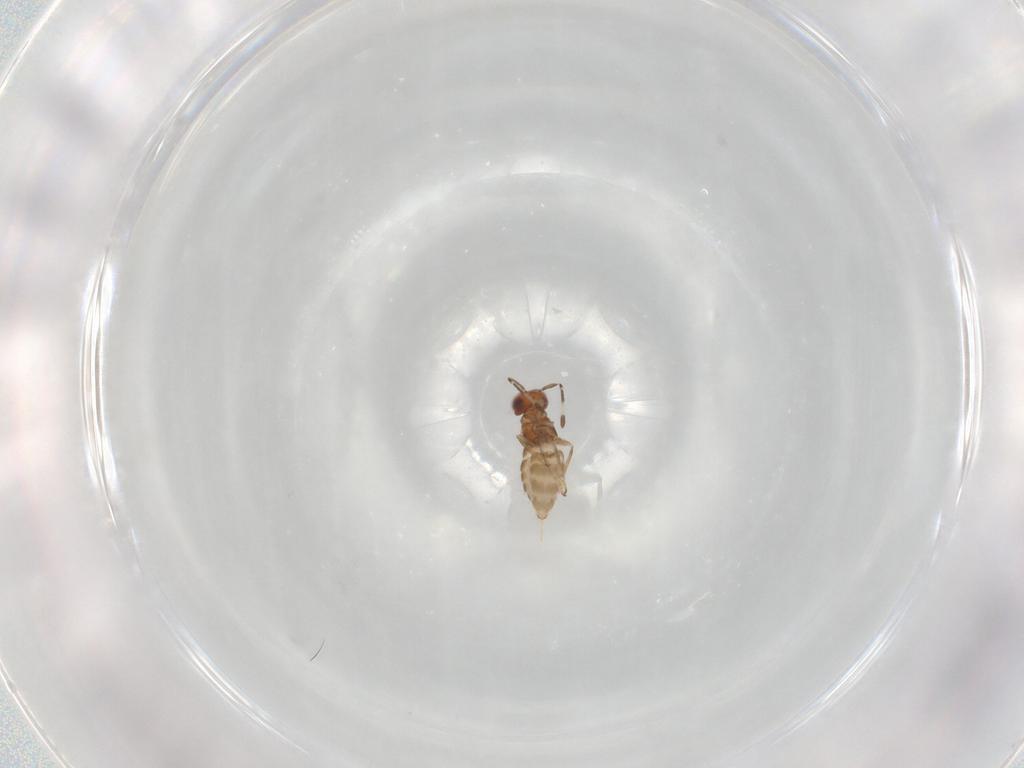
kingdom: Animalia
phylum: Arthropoda
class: Insecta
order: Hymenoptera
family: Encyrtidae
